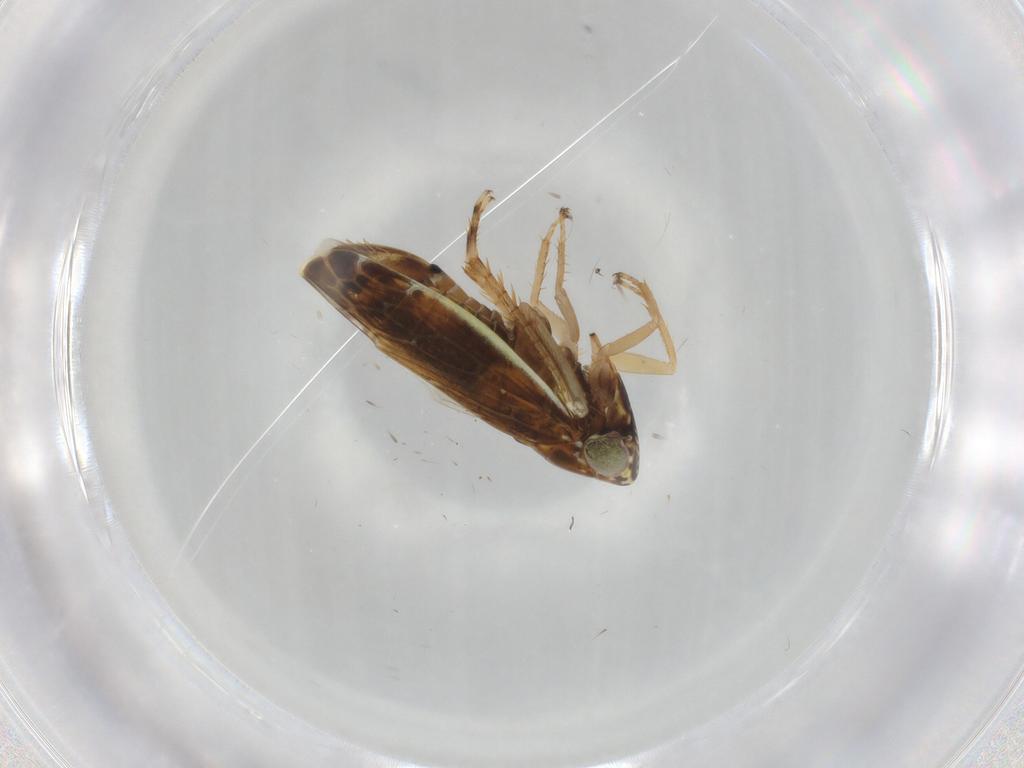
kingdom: Animalia
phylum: Arthropoda
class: Insecta
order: Hemiptera
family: Cicadellidae
